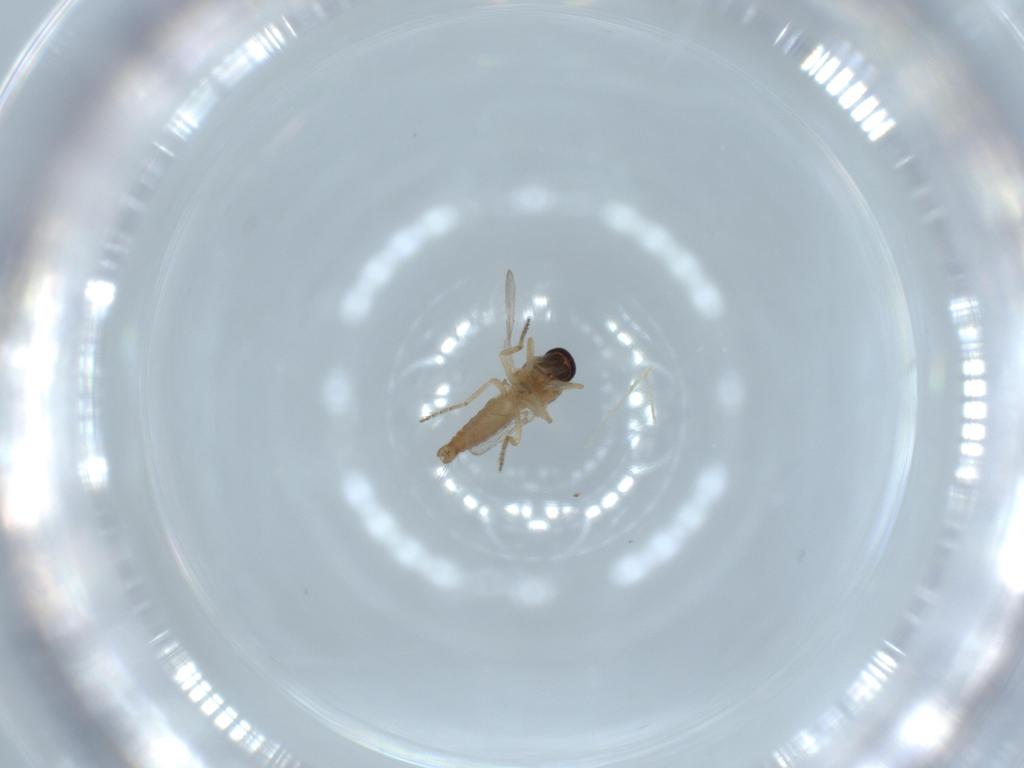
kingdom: Animalia
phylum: Arthropoda
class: Insecta
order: Diptera
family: Ceratopogonidae
